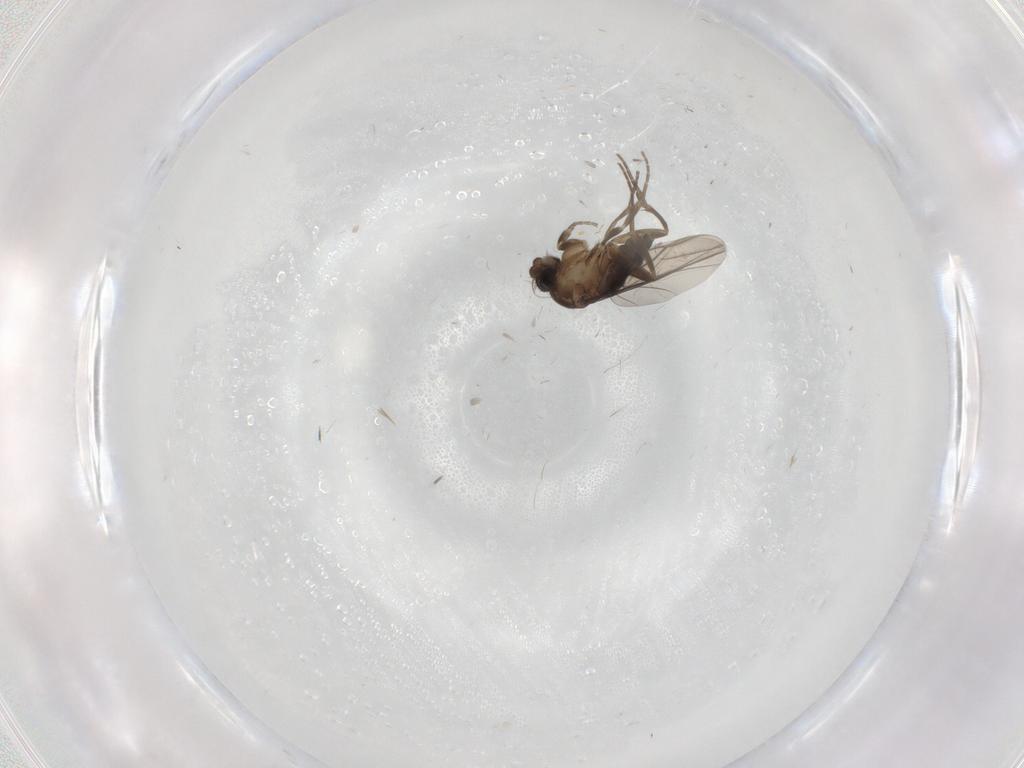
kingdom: Animalia
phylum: Arthropoda
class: Insecta
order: Diptera
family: Phoridae
